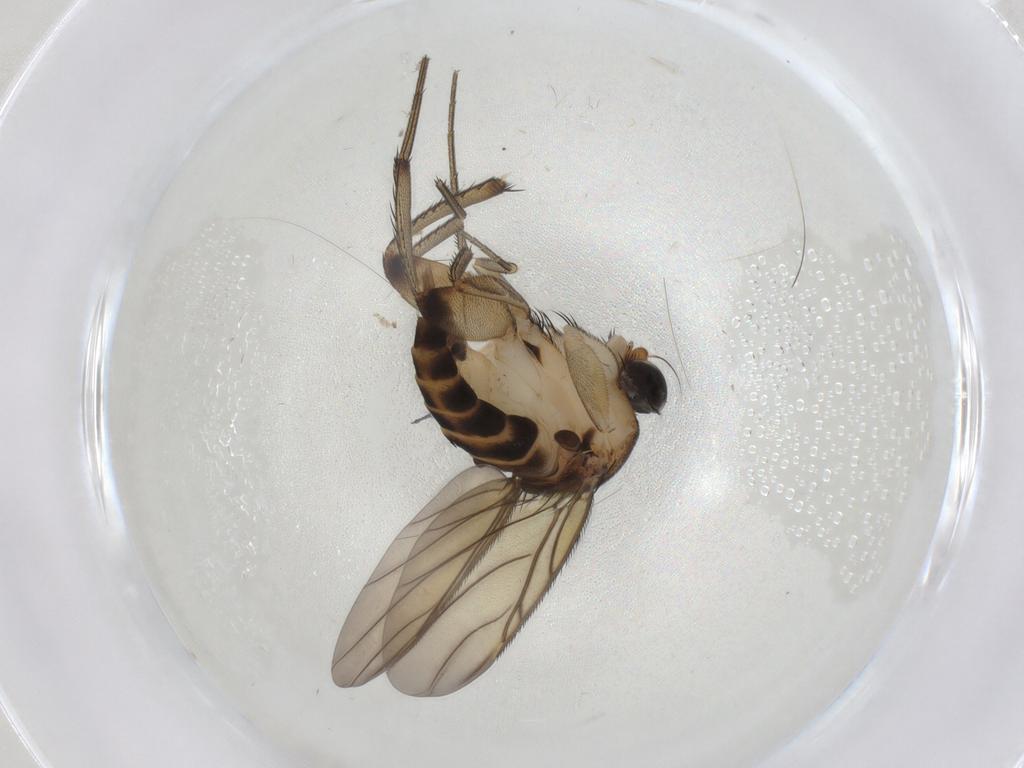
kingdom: Animalia
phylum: Arthropoda
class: Insecta
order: Diptera
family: Phoridae
